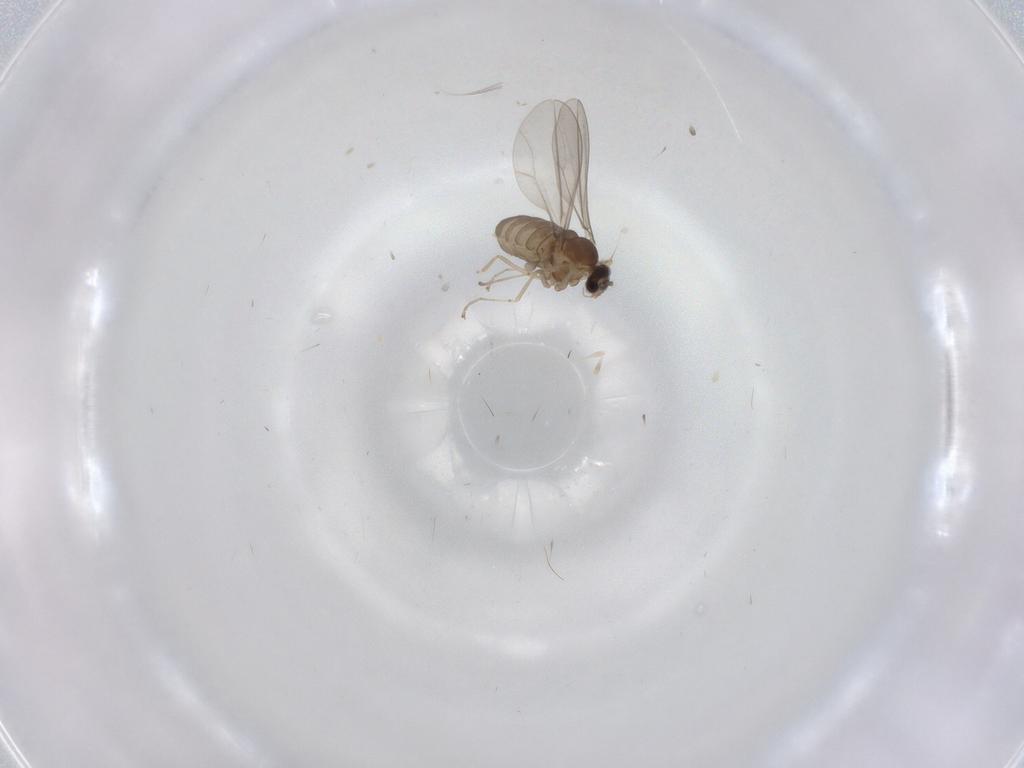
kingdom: Animalia
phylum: Arthropoda
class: Insecta
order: Diptera
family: Cecidomyiidae
